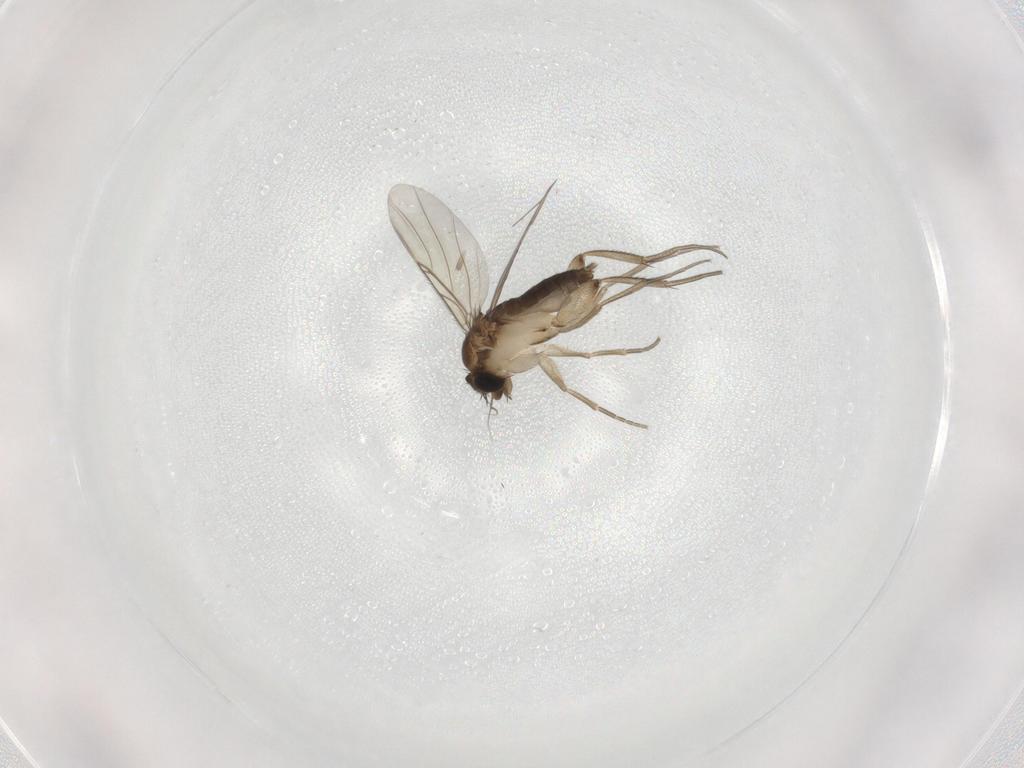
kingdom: Animalia
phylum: Arthropoda
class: Insecta
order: Diptera
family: Phoridae
